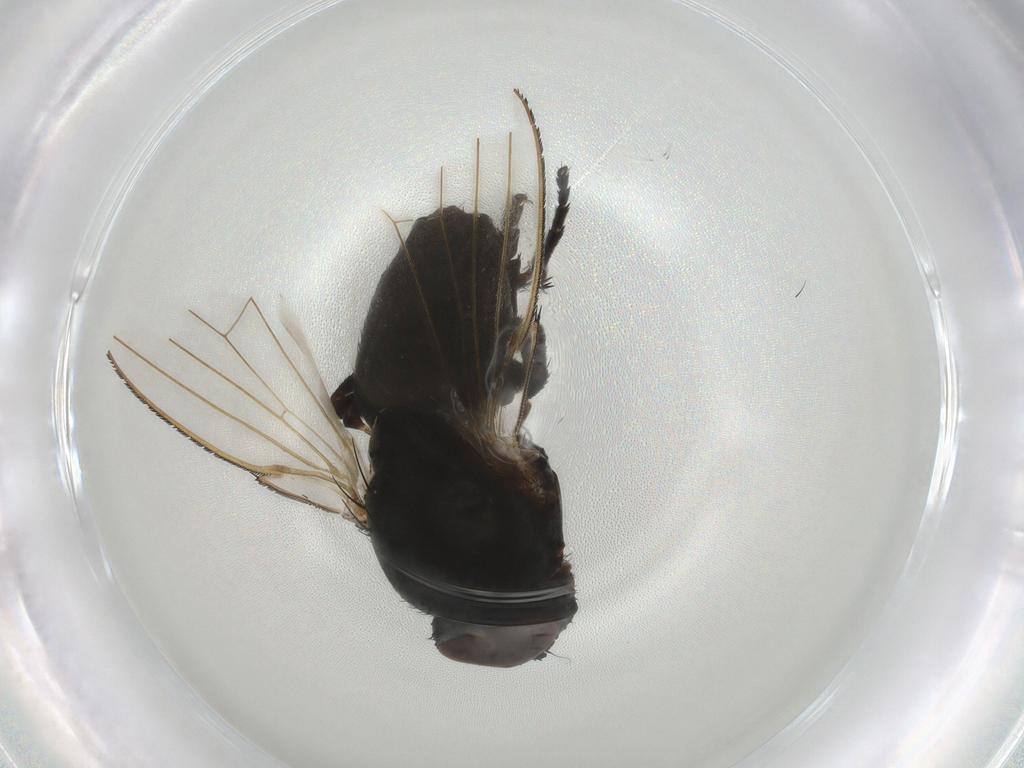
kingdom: Animalia
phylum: Arthropoda
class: Insecta
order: Diptera
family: Milichiidae
